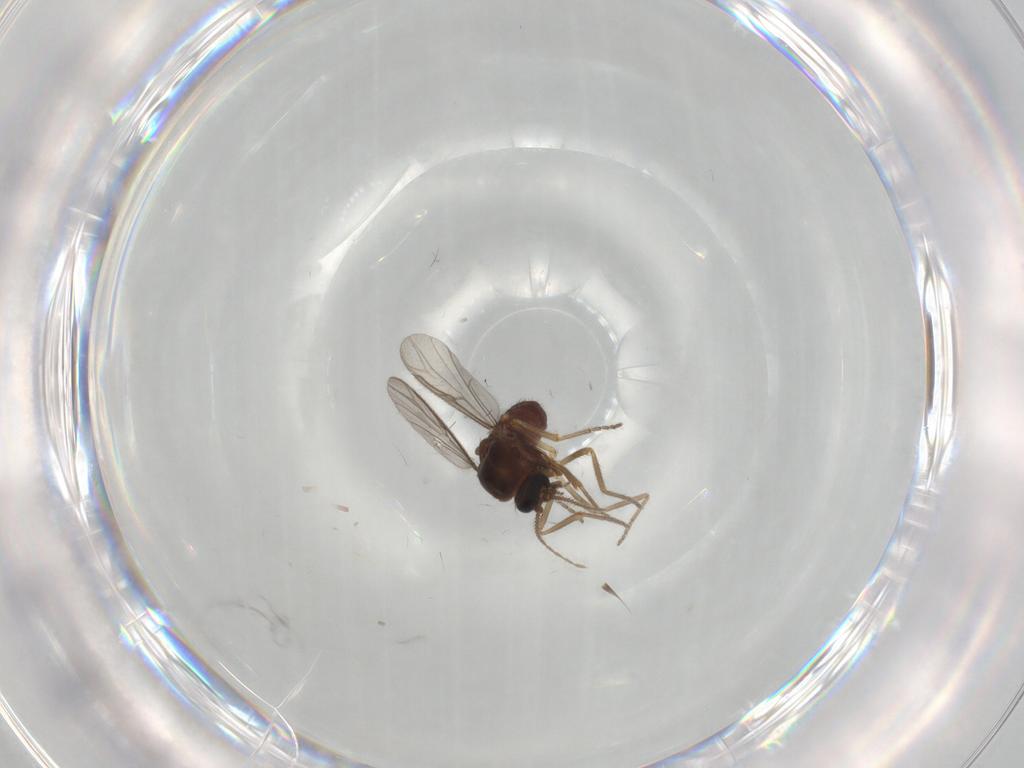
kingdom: Animalia
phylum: Arthropoda
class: Insecta
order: Diptera
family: Ceratopogonidae
